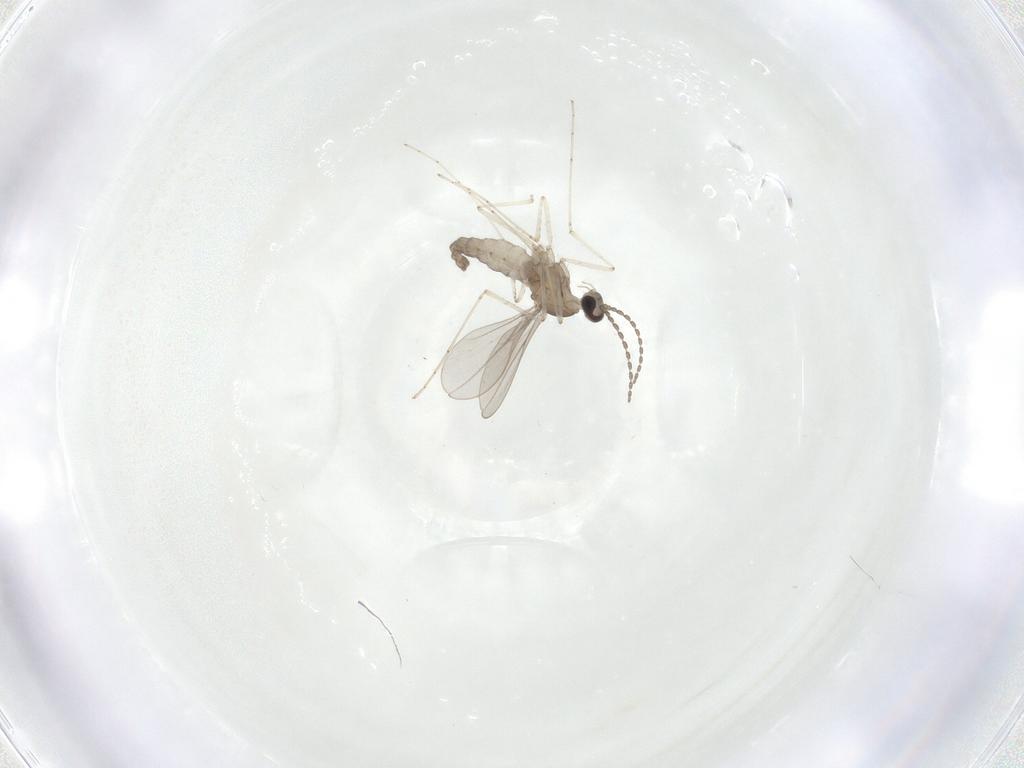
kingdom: Animalia
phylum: Arthropoda
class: Insecta
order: Diptera
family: Cecidomyiidae
